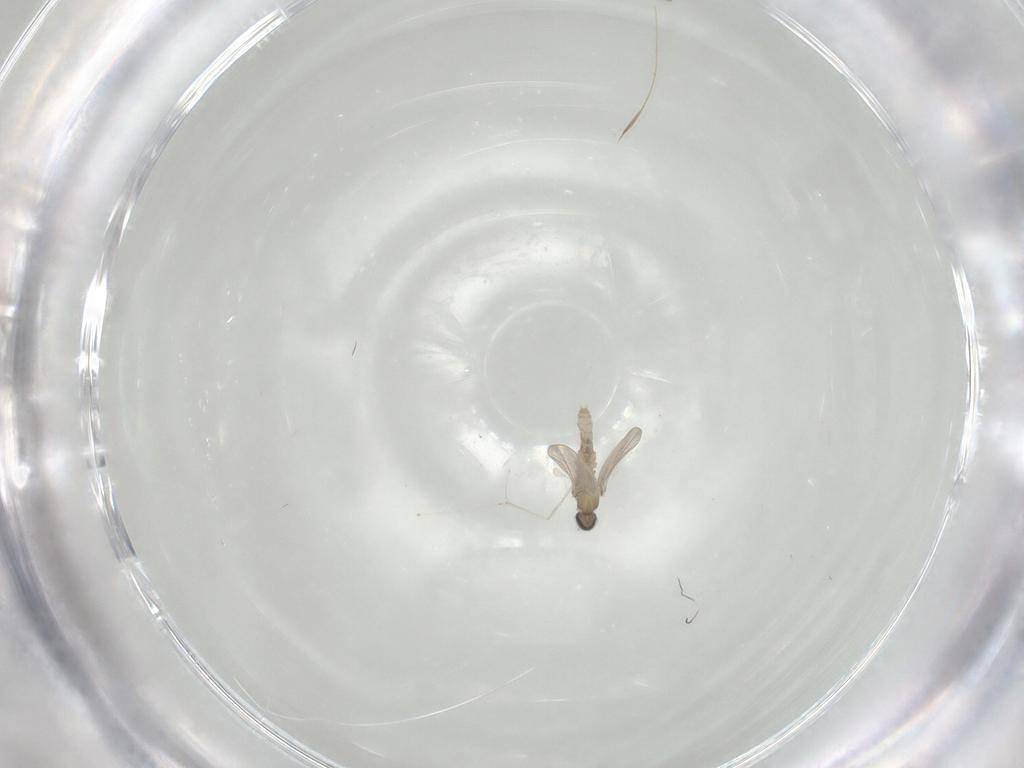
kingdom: Animalia
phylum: Arthropoda
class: Insecta
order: Diptera
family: Cecidomyiidae
